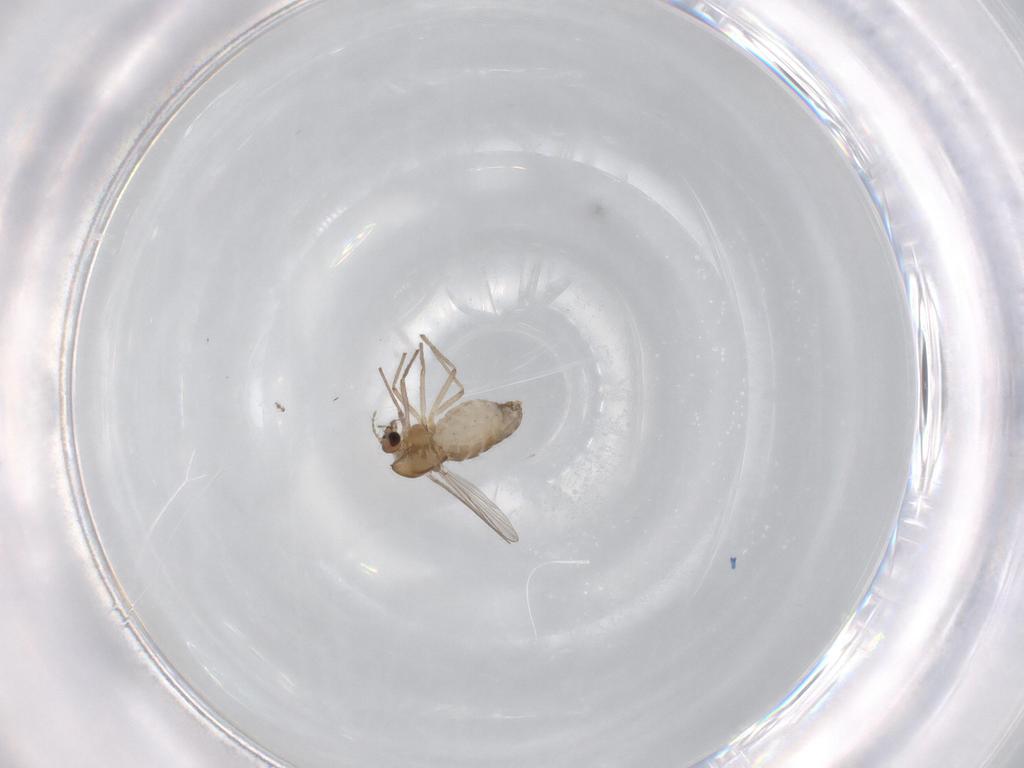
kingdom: Animalia
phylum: Arthropoda
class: Insecta
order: Diptera
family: Chironomidae
